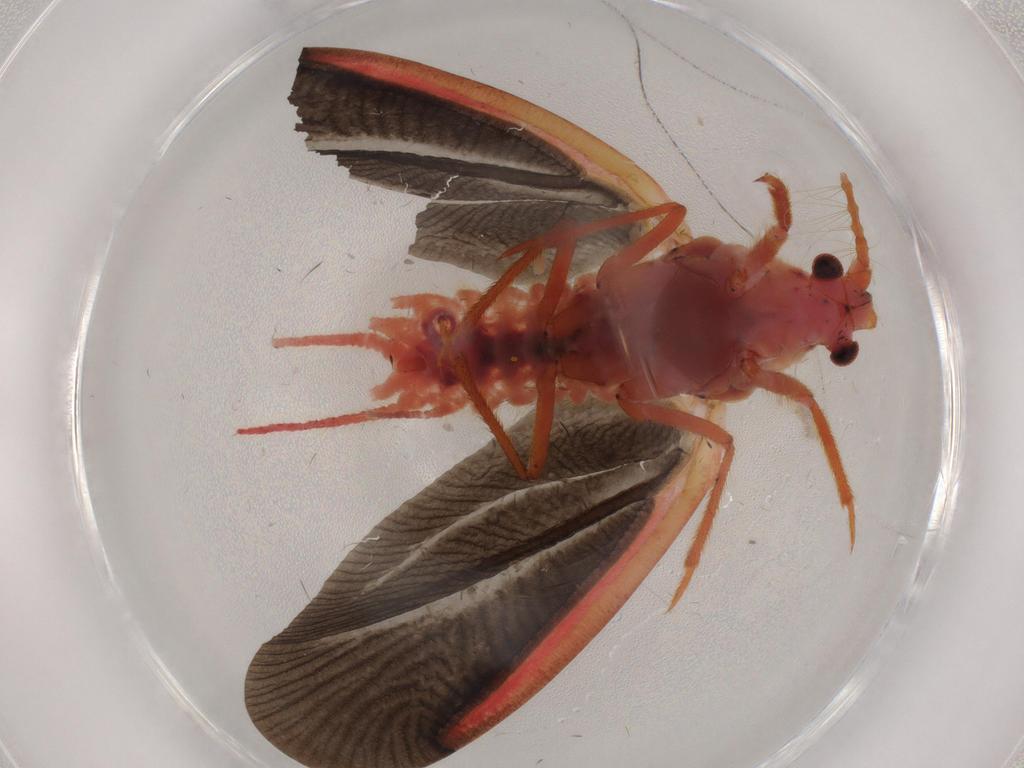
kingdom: Animalia
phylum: Arthropoda
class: Insecta
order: Hemiptera
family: Coccoidea_incertae_sedis
